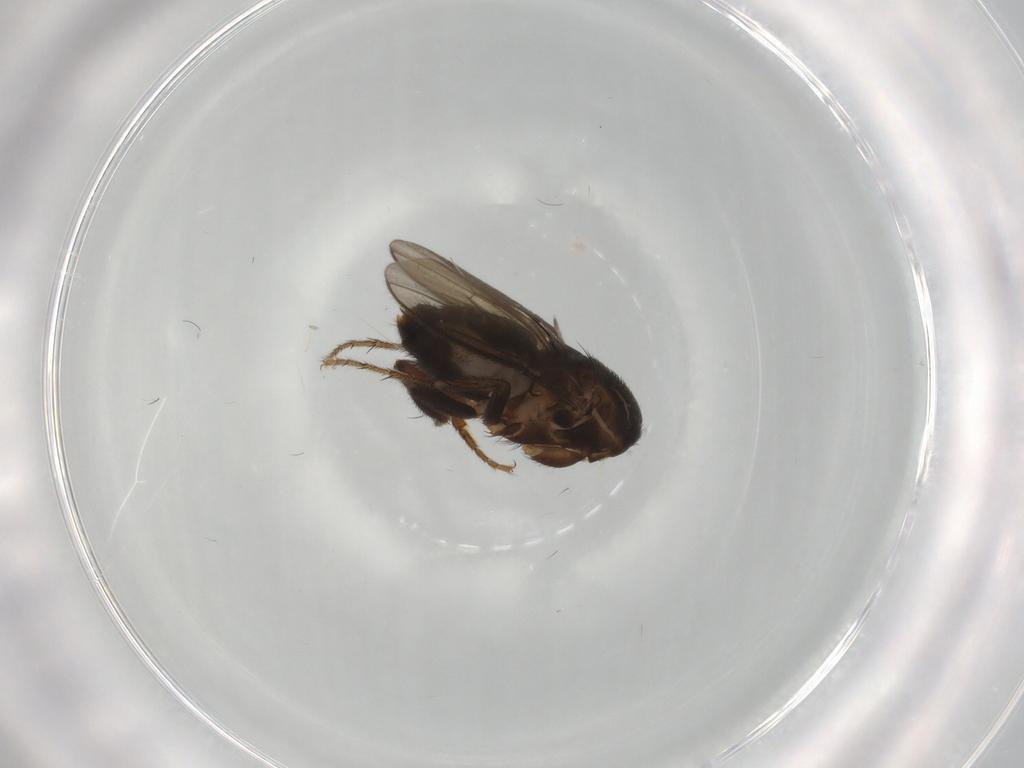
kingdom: Animalia
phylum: Arthropoda
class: Insecta
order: Diptera
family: Sphaeroceridae
